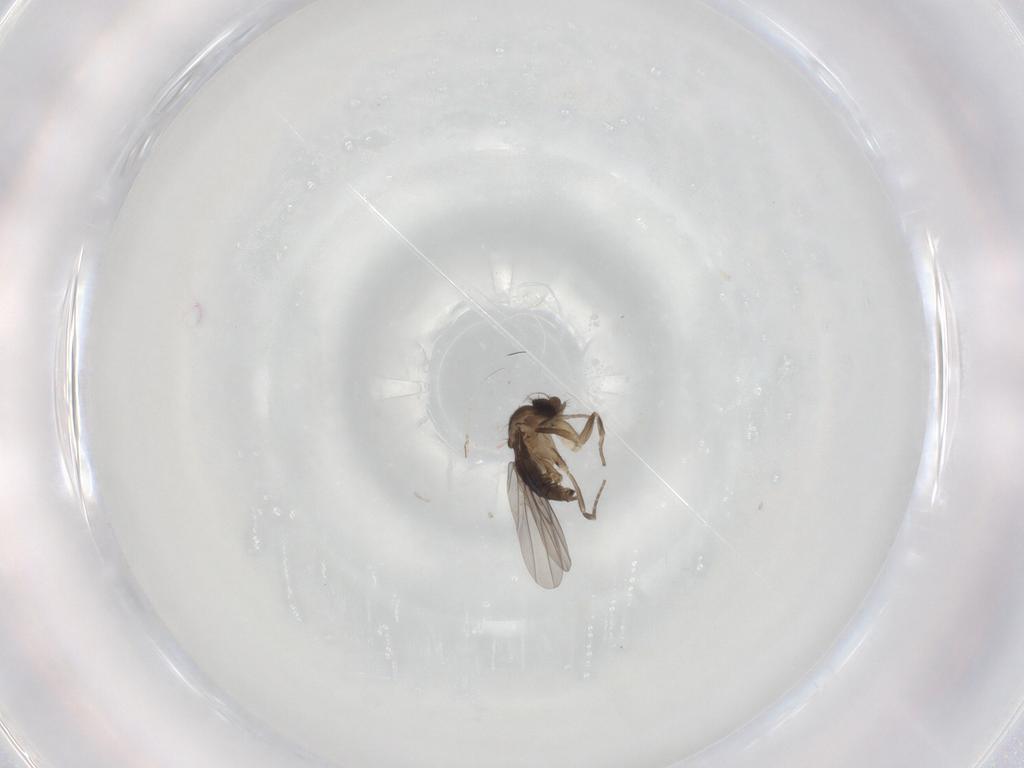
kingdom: Animalia
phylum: Arthropoda
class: Insecta
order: Diptera
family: Cecidomyiidae
